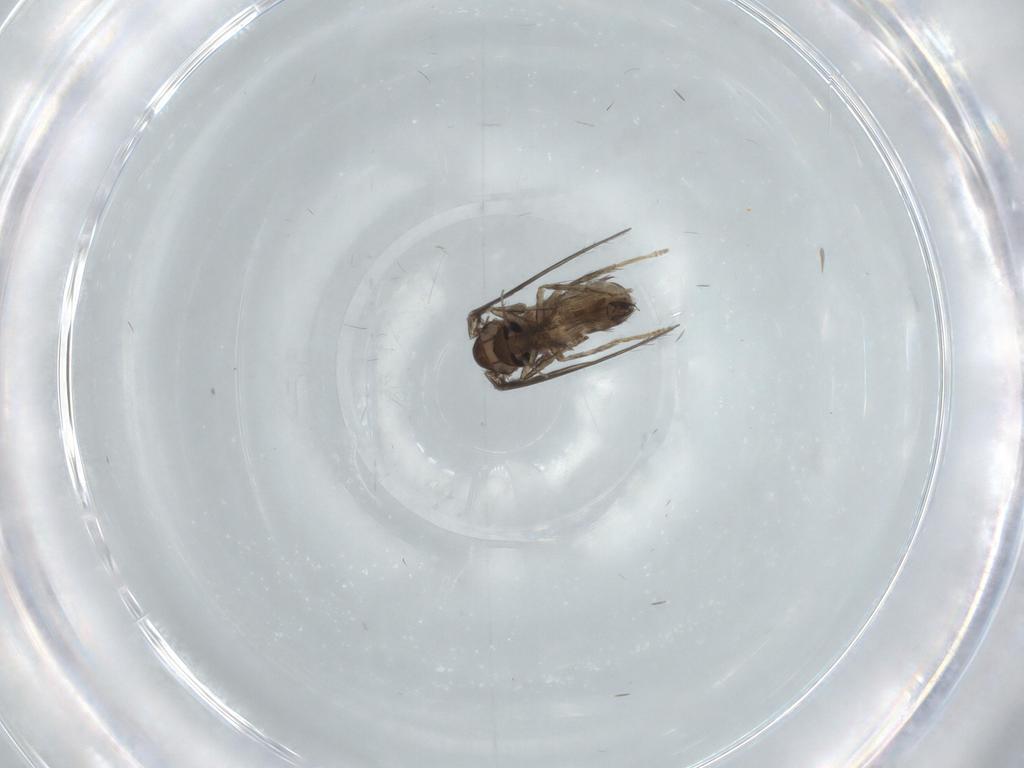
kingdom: Animalia
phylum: Arthropoda
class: Insecta
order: Diptera
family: Psychodidae
